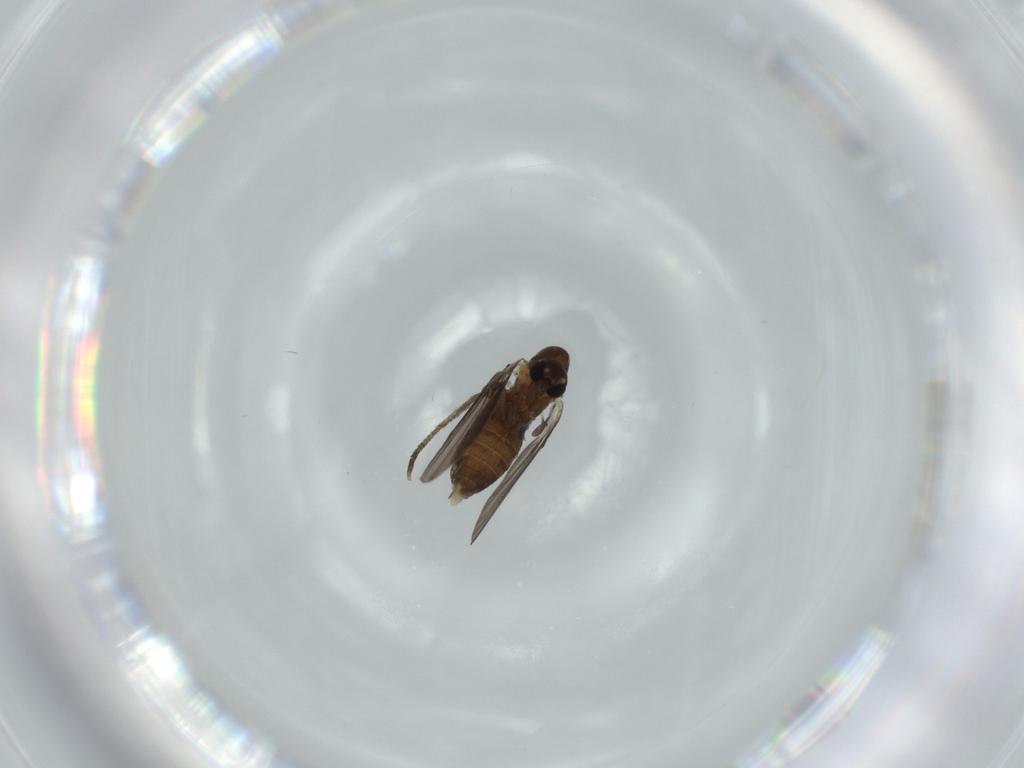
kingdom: Animalia
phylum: Arthropoda
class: Insecta
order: Diptera
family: Psychodidae
